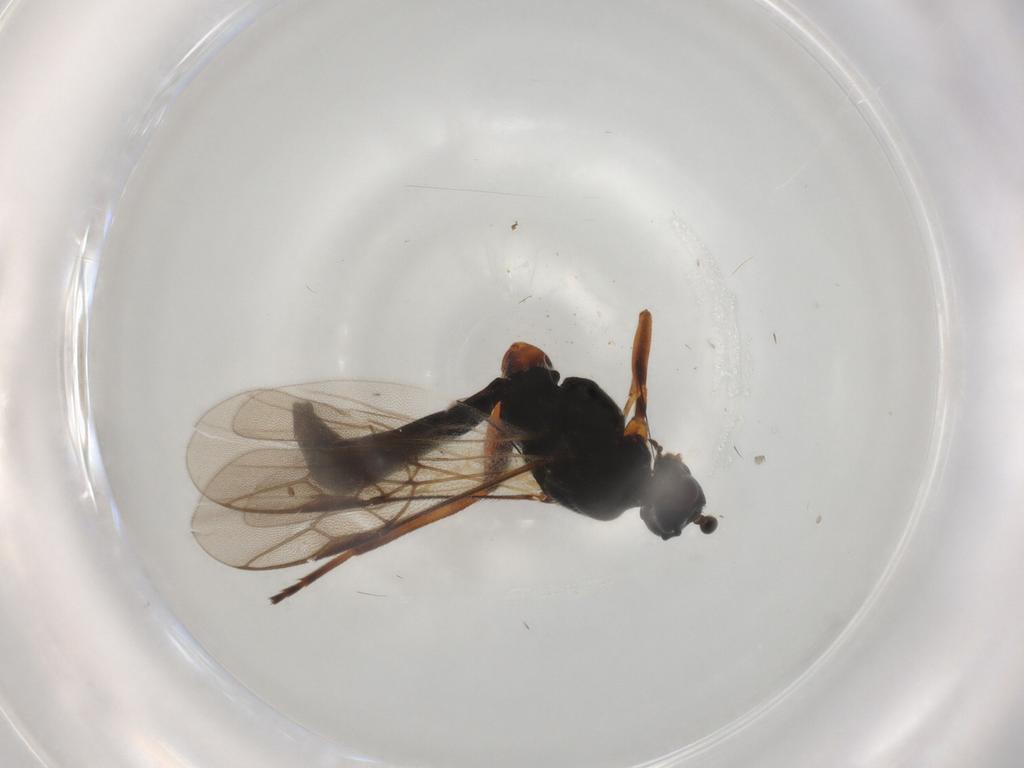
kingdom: Animalia
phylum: Arthropoda
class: Insecta
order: Hymenoptera
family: Braconidae
